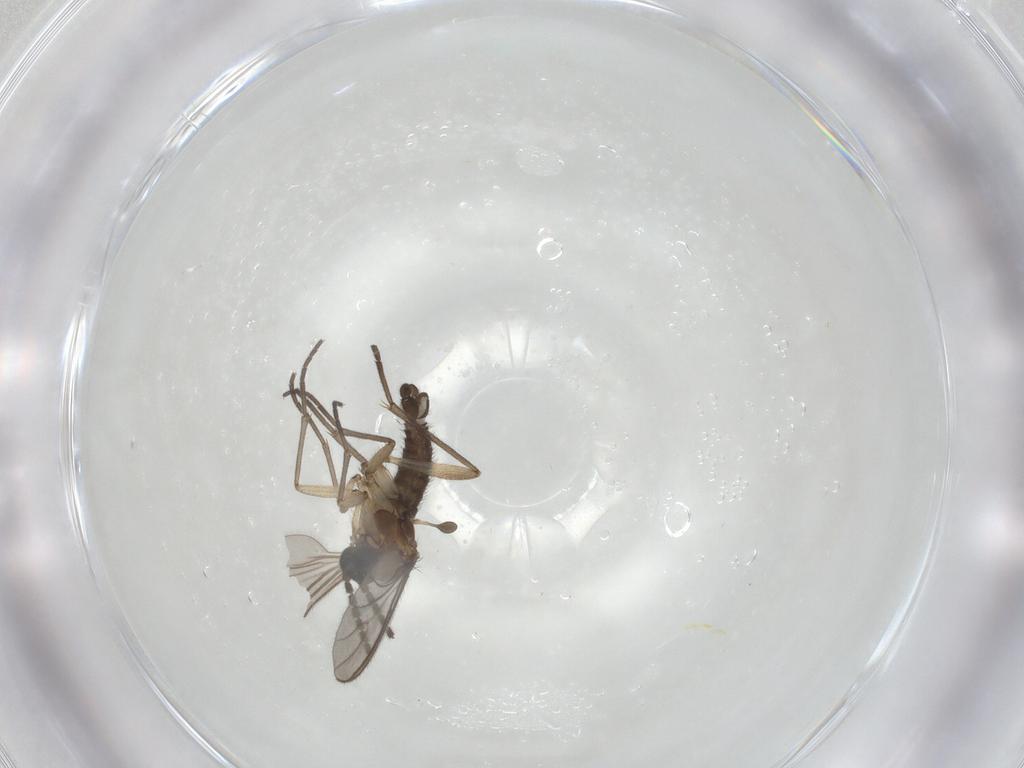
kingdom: Animalia
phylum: Arthropoda
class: Insecta
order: Diptera
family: Sciaridae
